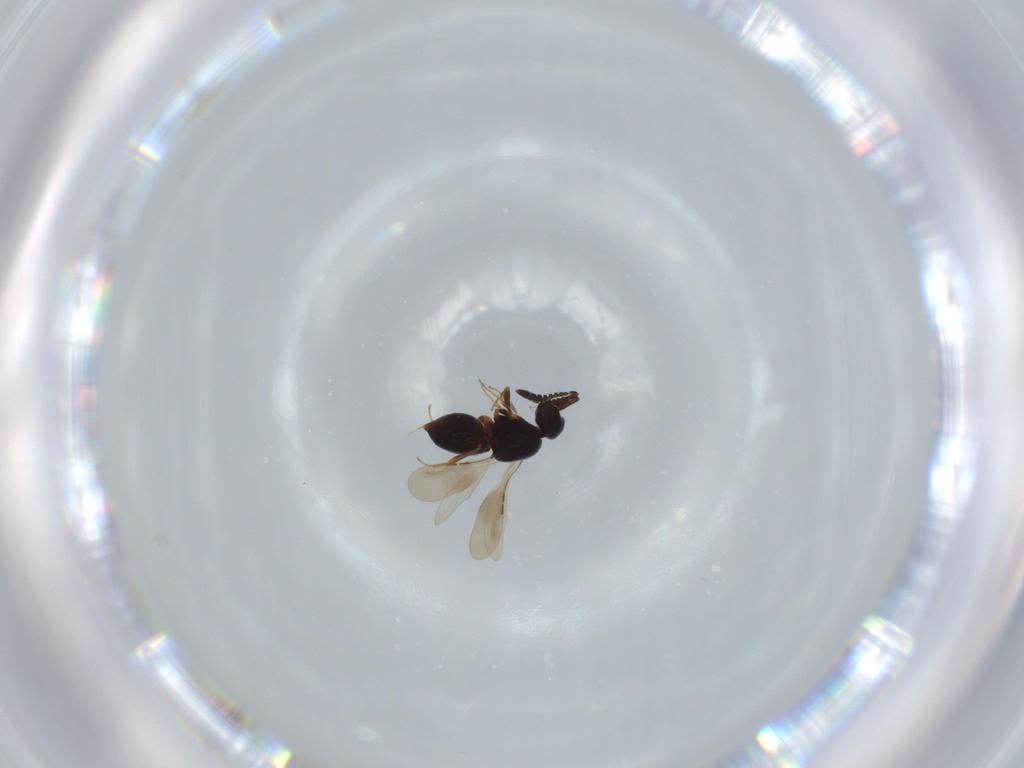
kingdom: Animalia
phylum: Arthropoda
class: Insecta
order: Hymenoptera
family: Ceraphronidae
